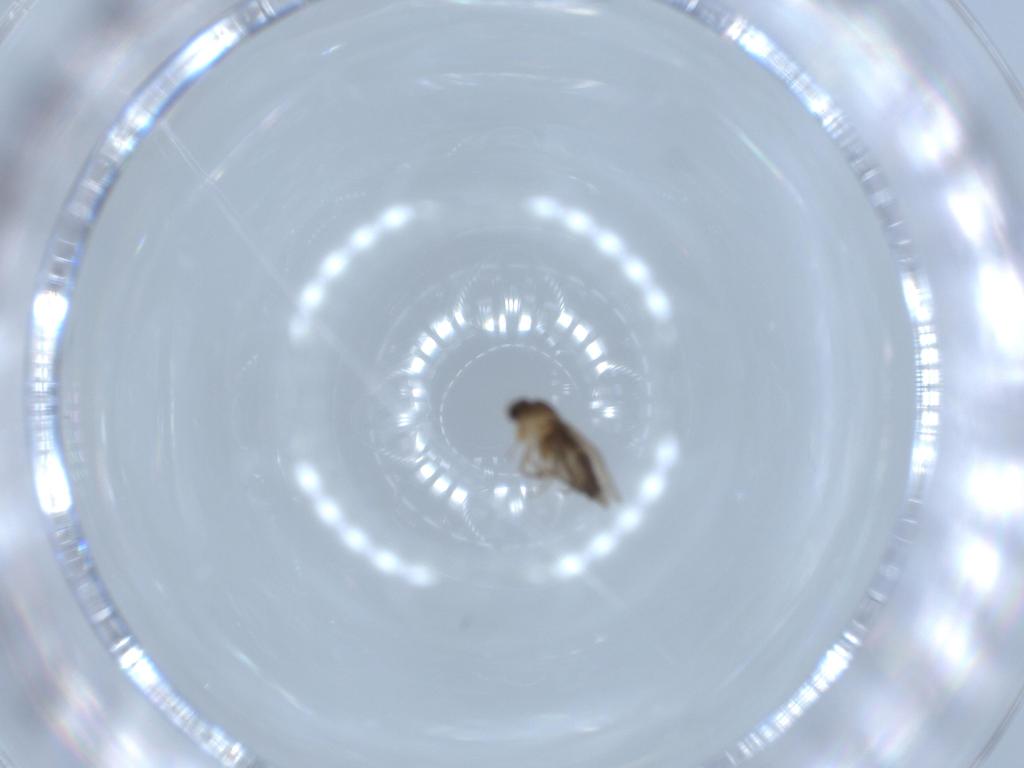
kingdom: Animalia
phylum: Arthropoda
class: Insecta
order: Diptera
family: Phoridae
